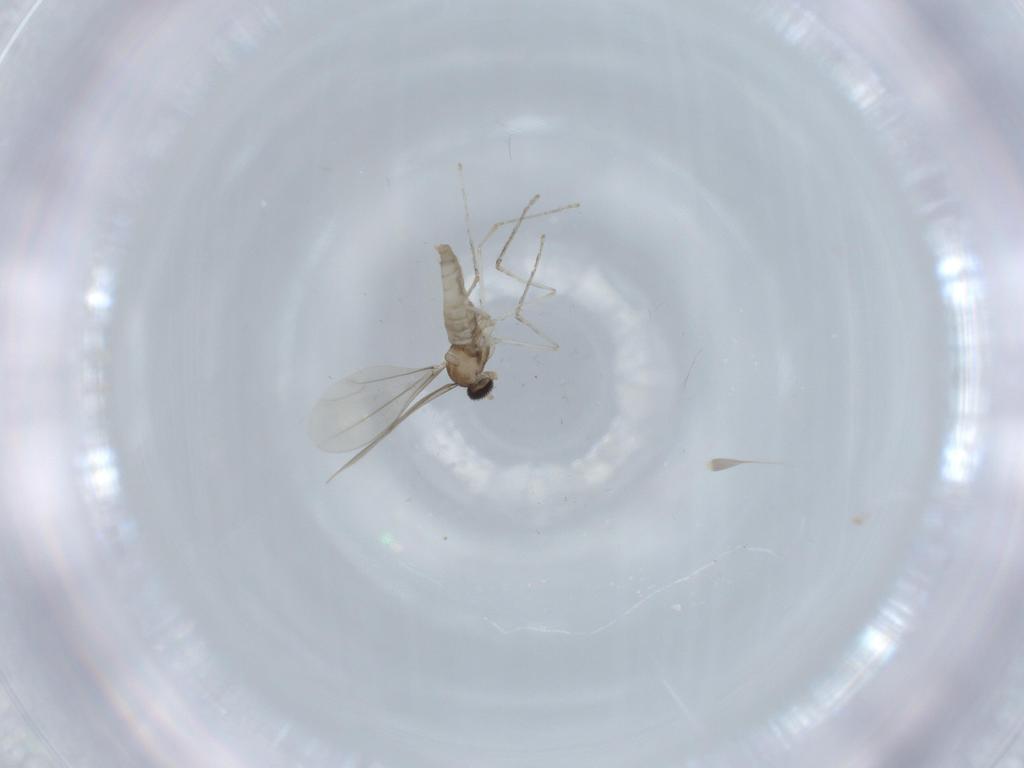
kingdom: Animalia
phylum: Arthropoda
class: Insecta
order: Diptera
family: Cecidomyiidae
